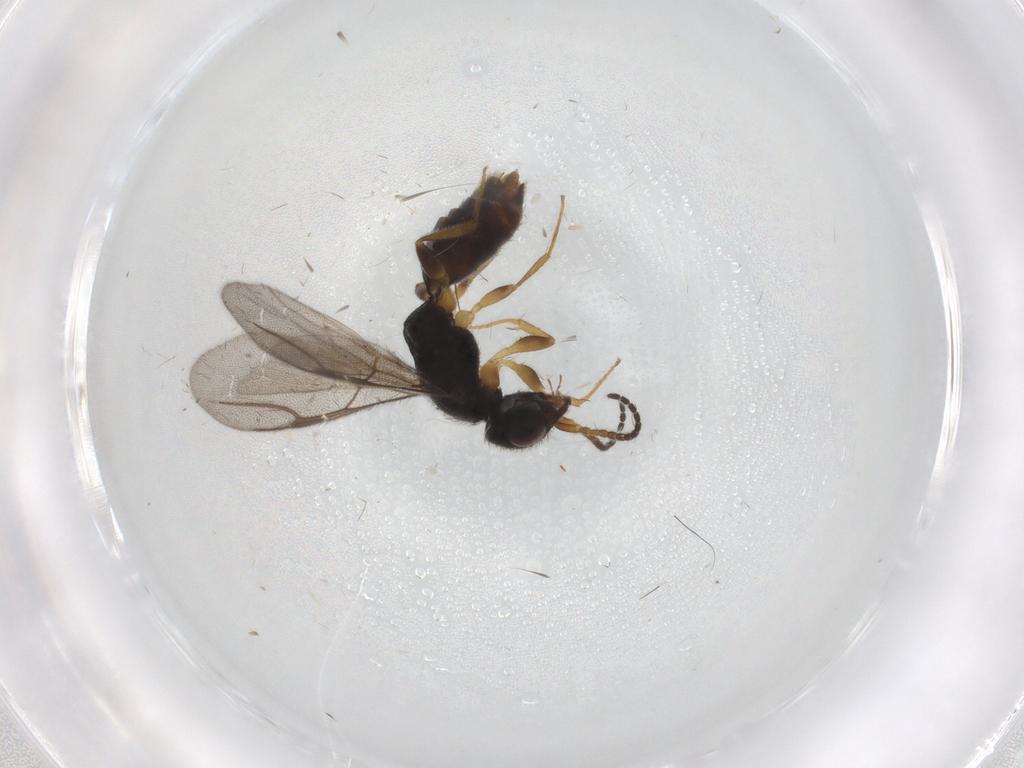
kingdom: Animalia
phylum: Arthropoda
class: Insecta
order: Hymenoptera
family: Bethylidae
